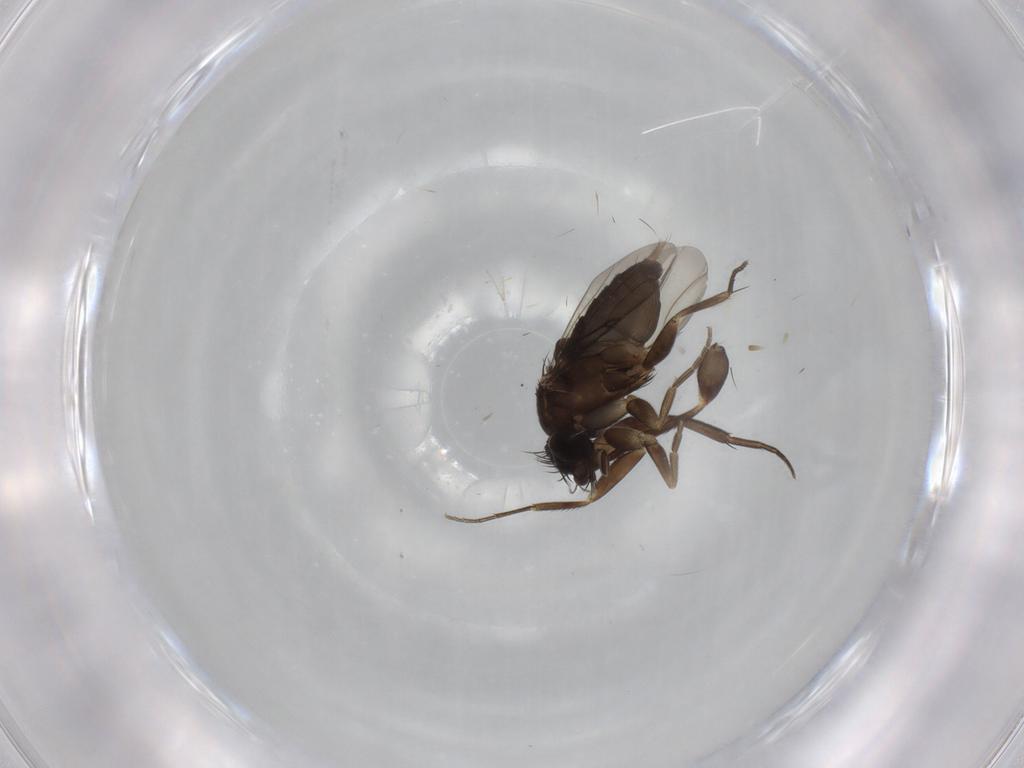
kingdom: Animalia
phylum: Arthropoda
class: Insecta
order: Diptera
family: Phoridae
